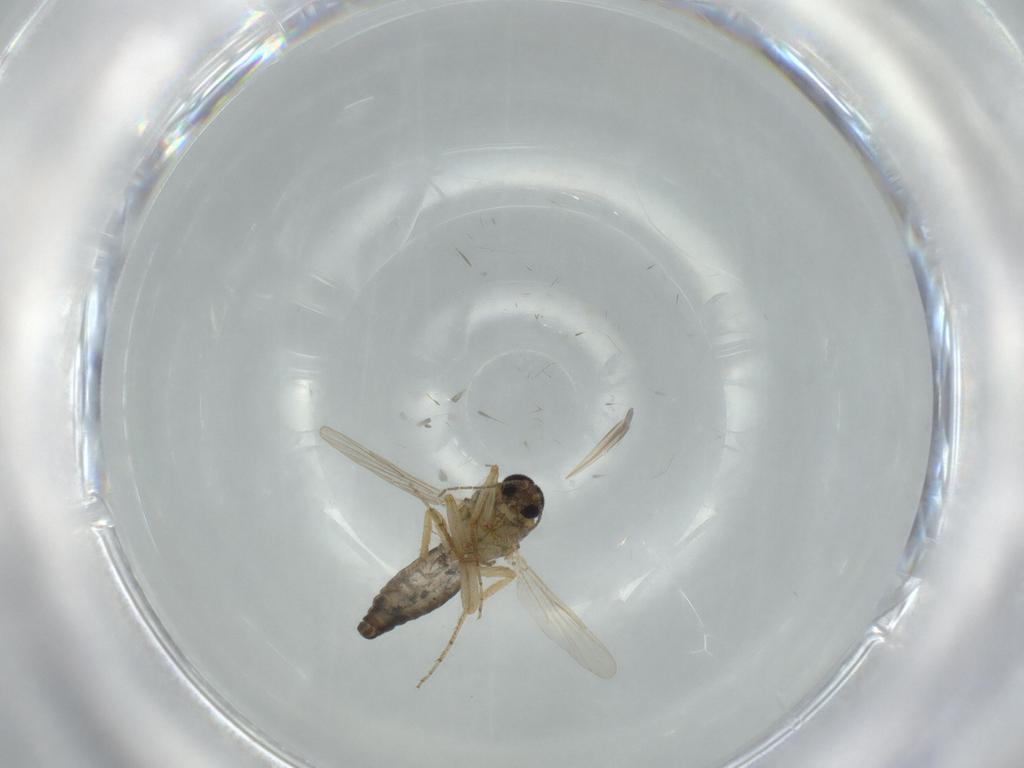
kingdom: Animalia
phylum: Arthropoda
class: Insecta
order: Diptera
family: Ceratopogonidae
